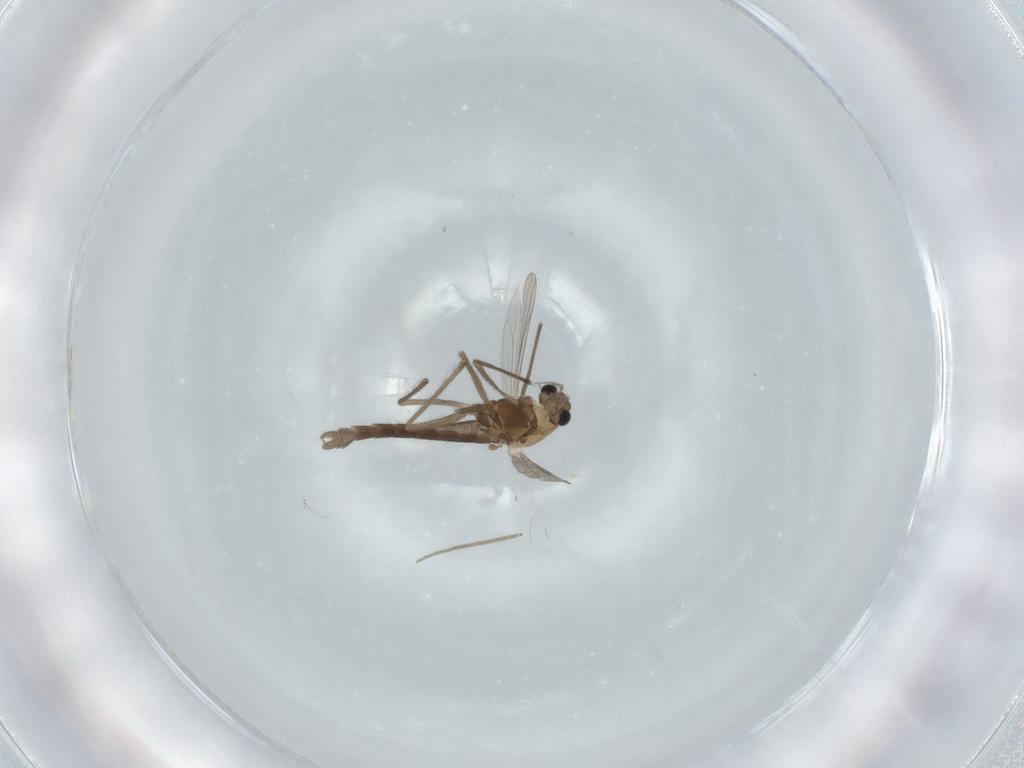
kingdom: Animalia
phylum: Arthropoda
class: Insecta
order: Diptera
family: Chironomidae
